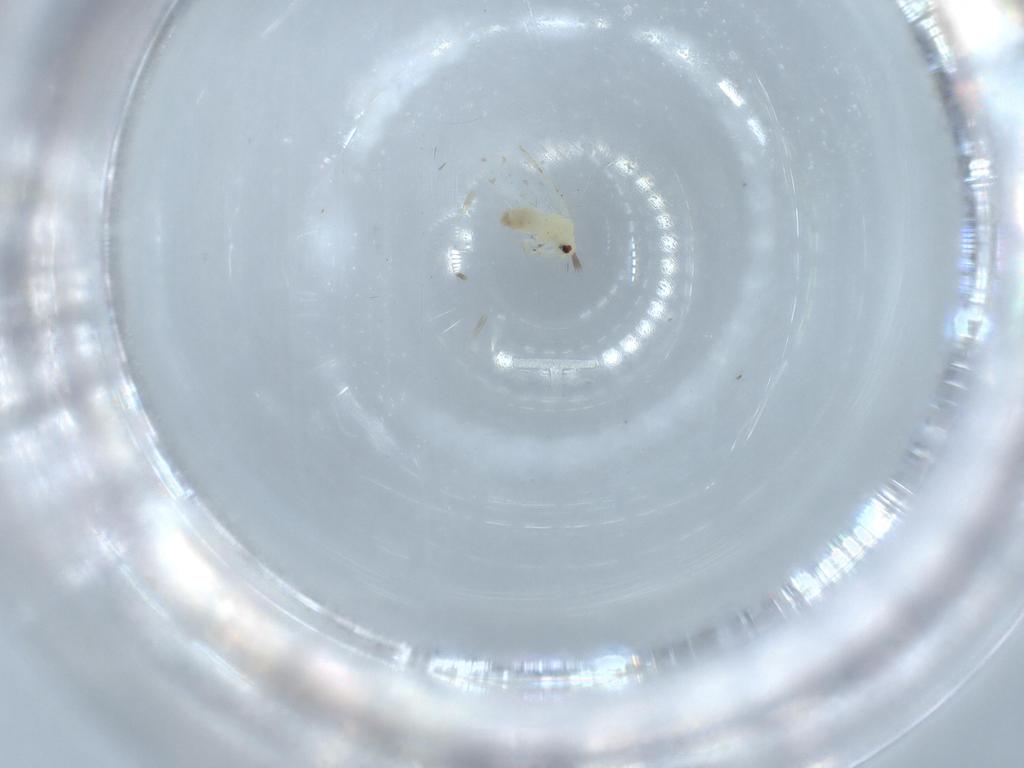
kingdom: Animalia
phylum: Arthropoda
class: Insecta
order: Hemiptera
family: Aleyrodidae
